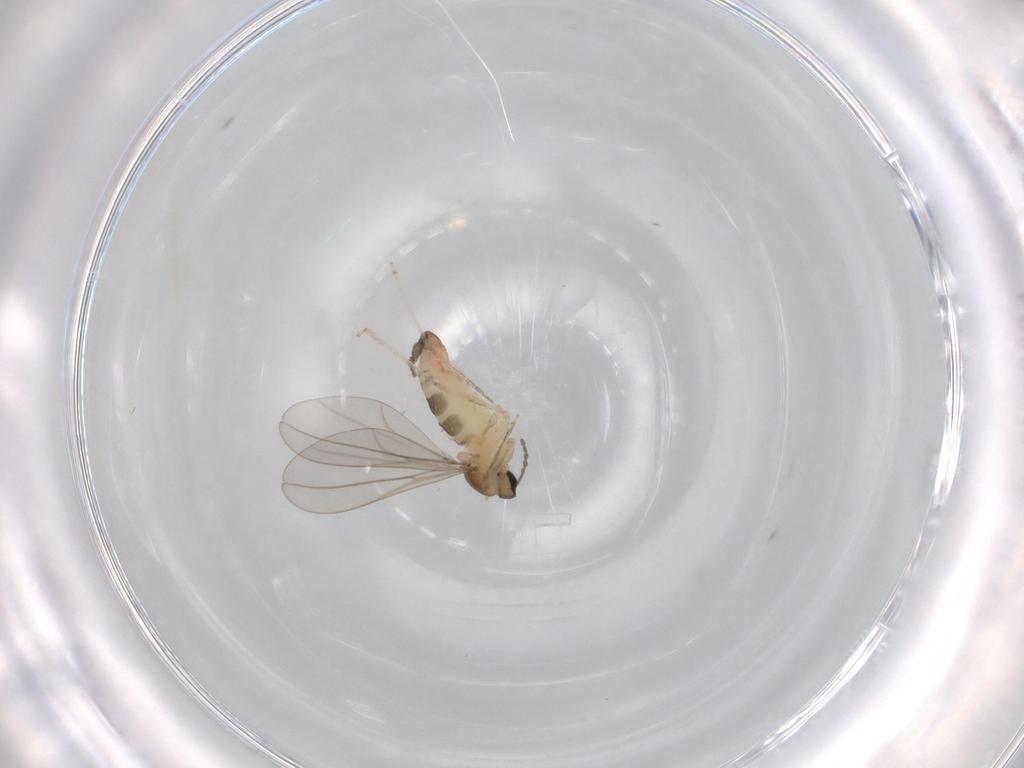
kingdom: Animalia
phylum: Arthropoda
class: Insecta
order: Diptera
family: Cecidomyiidae
